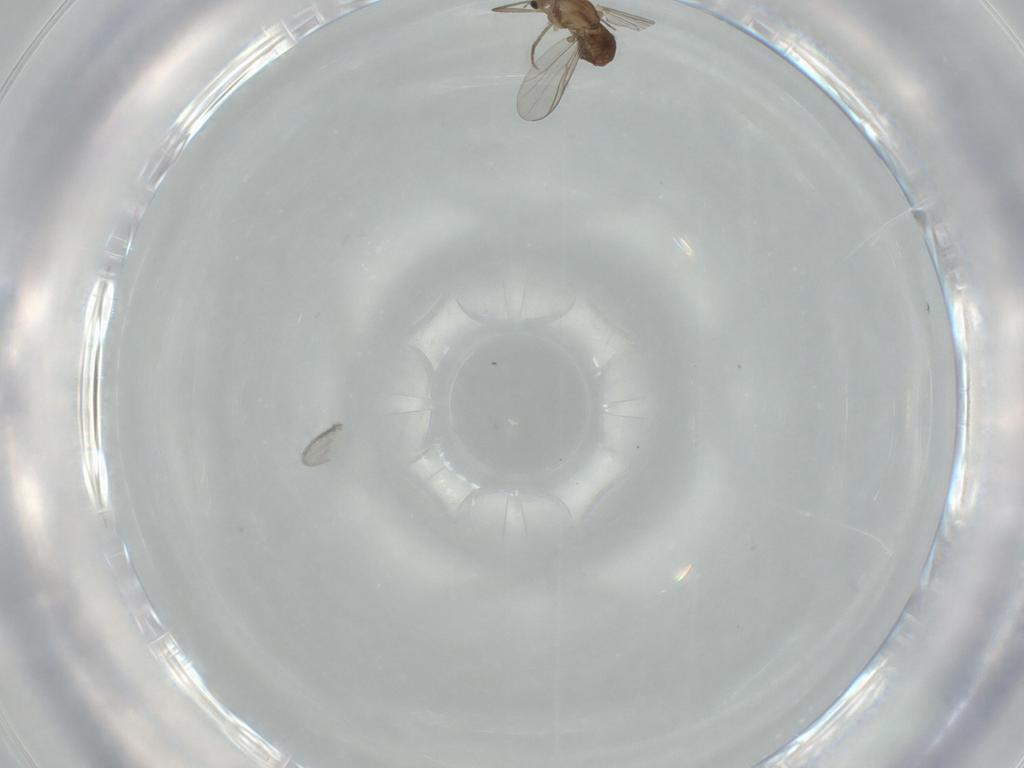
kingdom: Animalia
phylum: Arthropoda
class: Insecta
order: Diptera
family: Chironomidae
